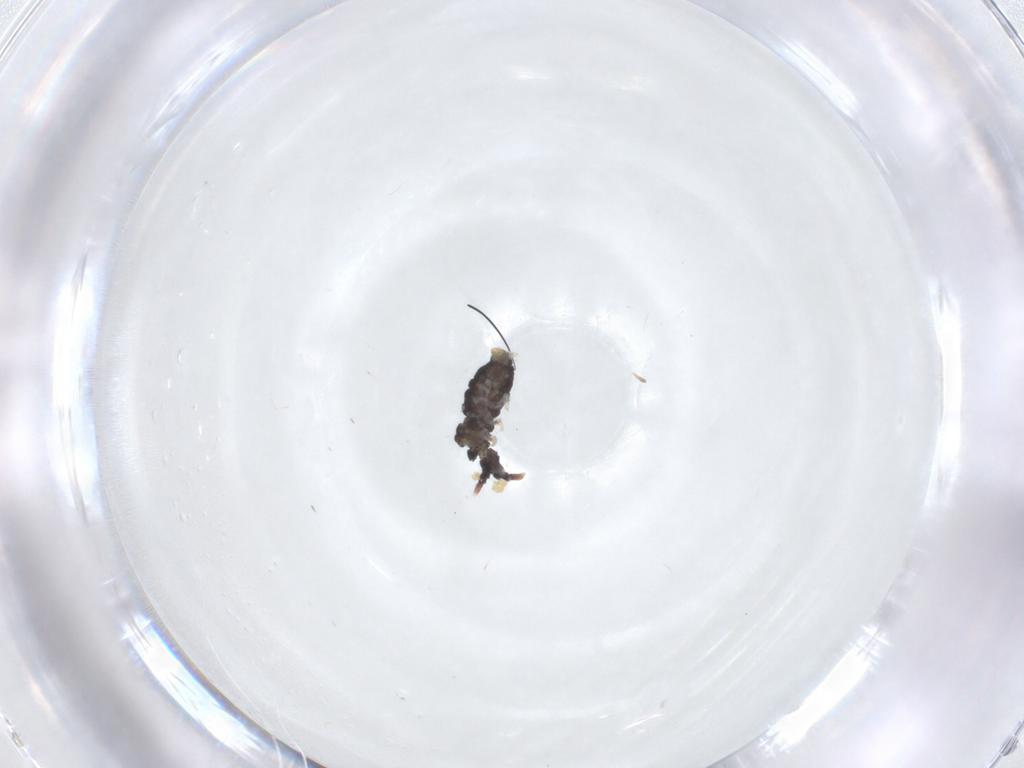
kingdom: Animalia
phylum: Arthropoda
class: Collembola
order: Poduromorpha
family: Neanuridae
